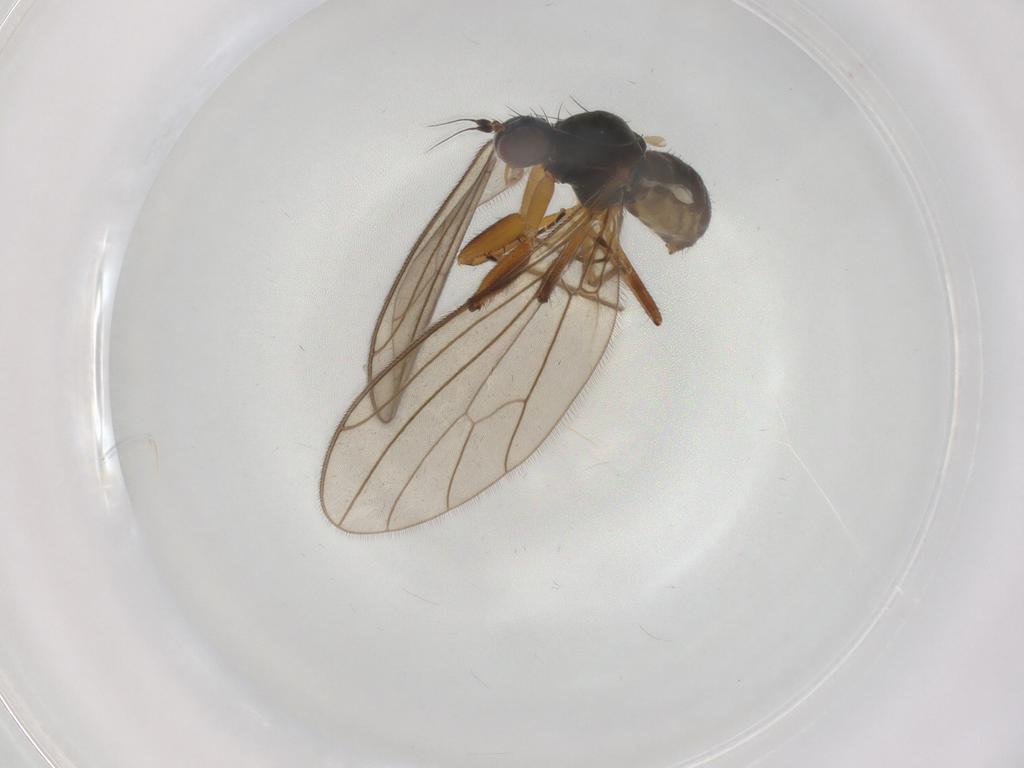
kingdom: Animalia
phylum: Arthropoda
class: Insecta
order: Diptera
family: Empididae
